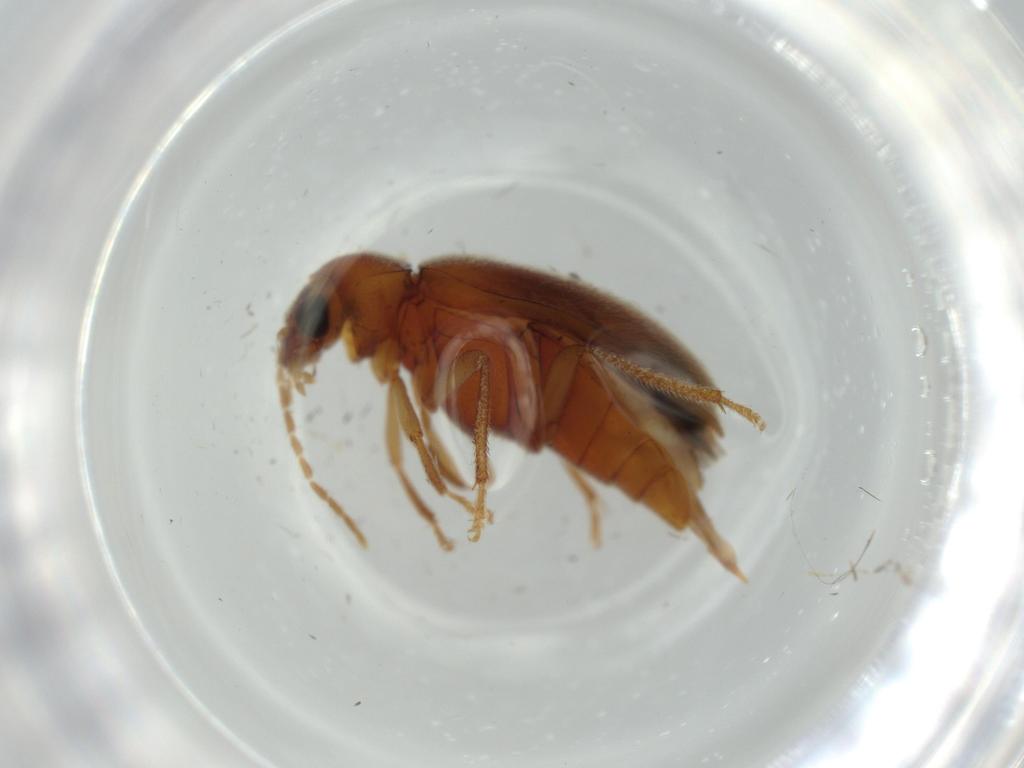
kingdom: Animalia
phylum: Arthropoda
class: Insecta
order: Coleoptera
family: Ptilodactylidae
